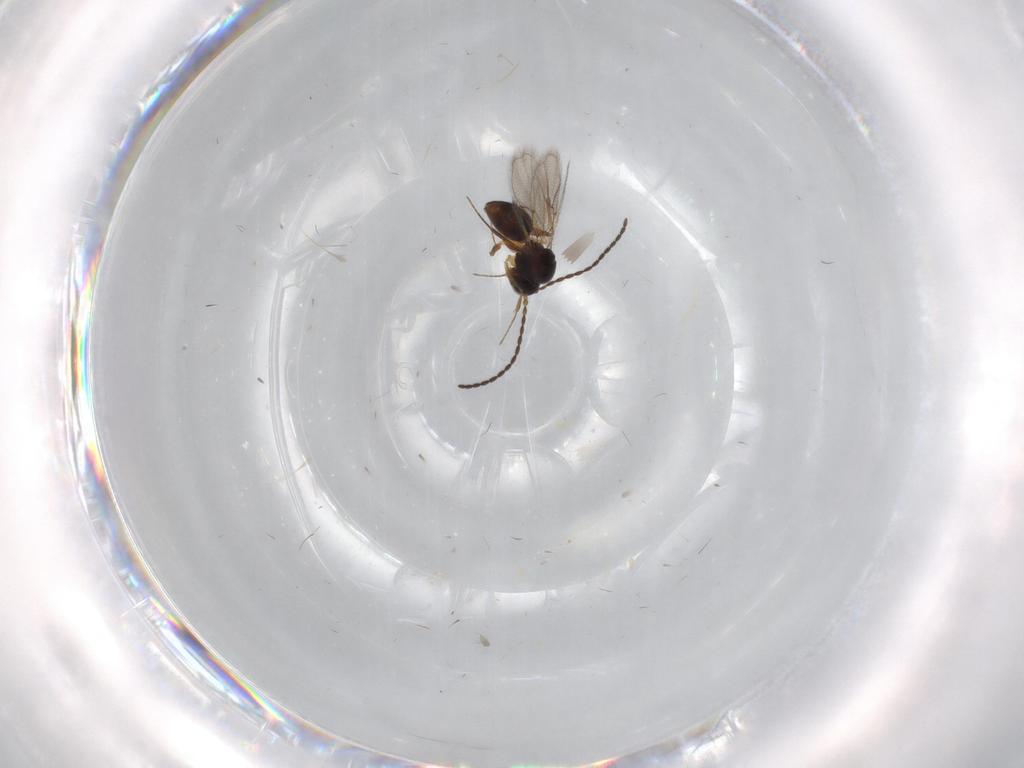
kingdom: Animalia
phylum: Arthropoda
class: Insecta
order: Hymenoptera
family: Figitidae
